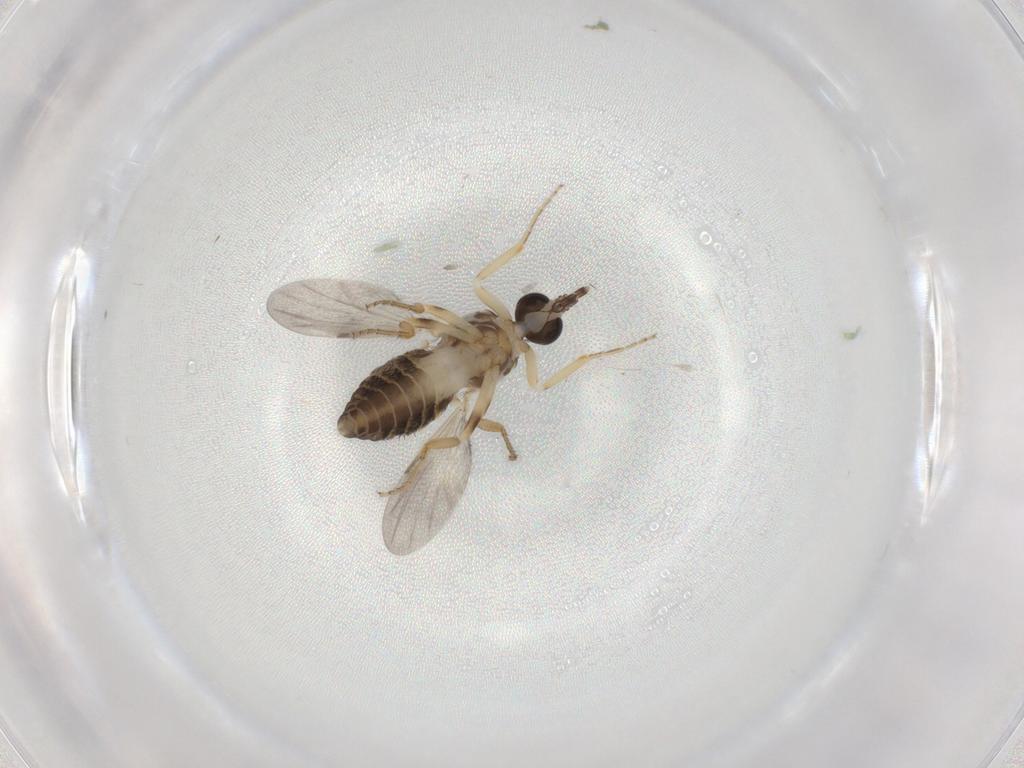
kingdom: Animalia
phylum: Arthropoda
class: Insecta
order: Diptera
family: Ceratopogonidae
